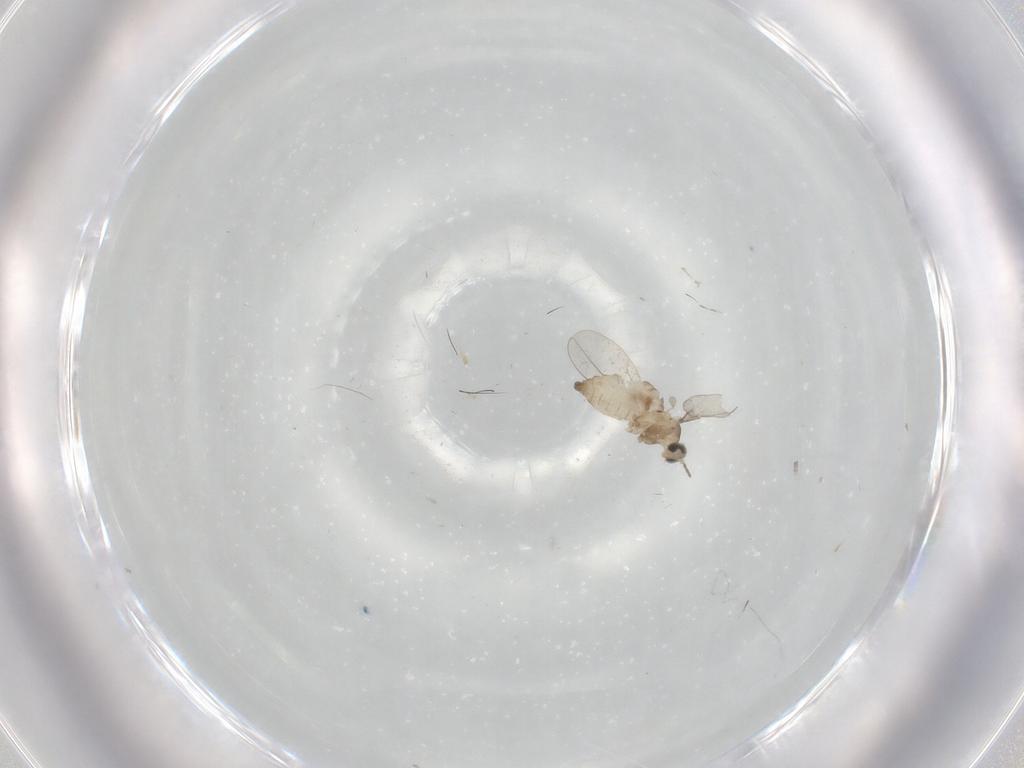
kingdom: Animalia
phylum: Arthropoda
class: Insecta
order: Diptera
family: Cecidomyiidae
